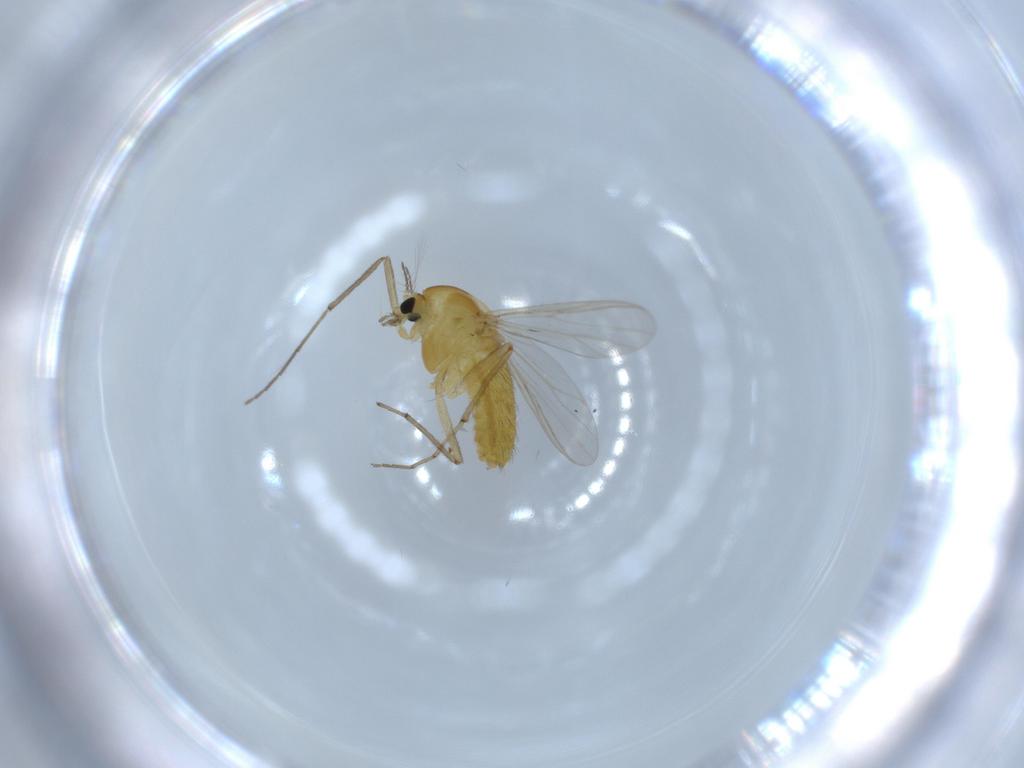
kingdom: Animalia
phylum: Arthropoda
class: Insecta
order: Diptera
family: Chironomidae
